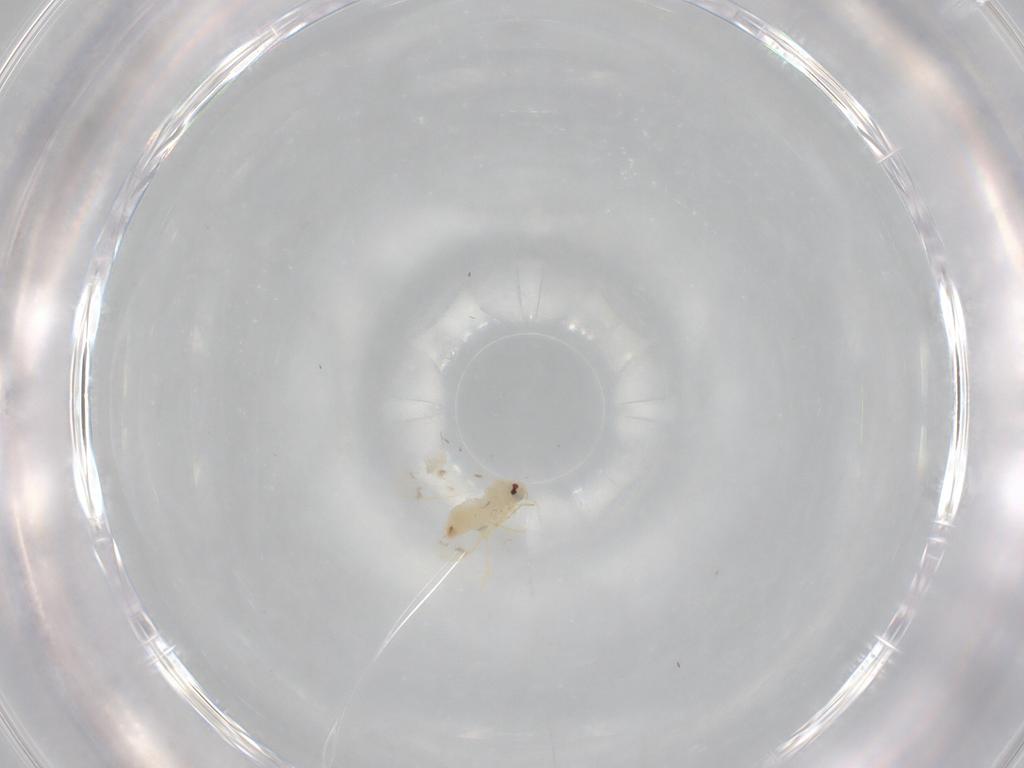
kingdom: Animalia
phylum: Arthropoda
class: Insecta
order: Hemiptera
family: Aleyrodidae
